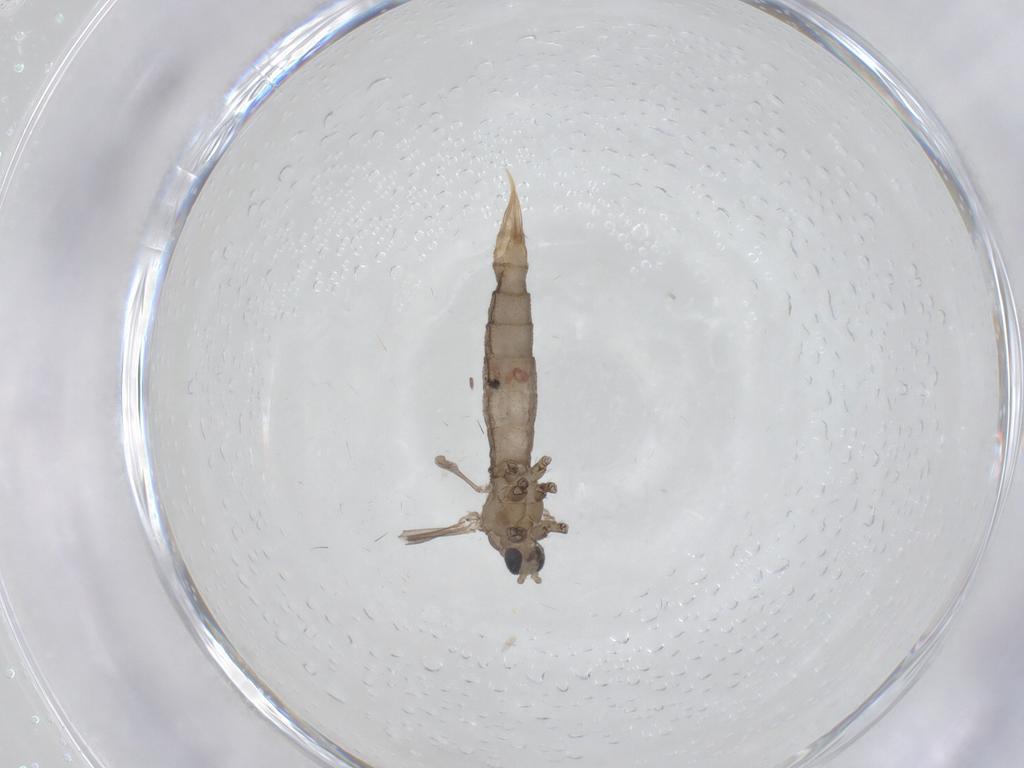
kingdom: Animalia
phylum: Arthropoda
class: Insecta
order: Diptera
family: Limoniidae
